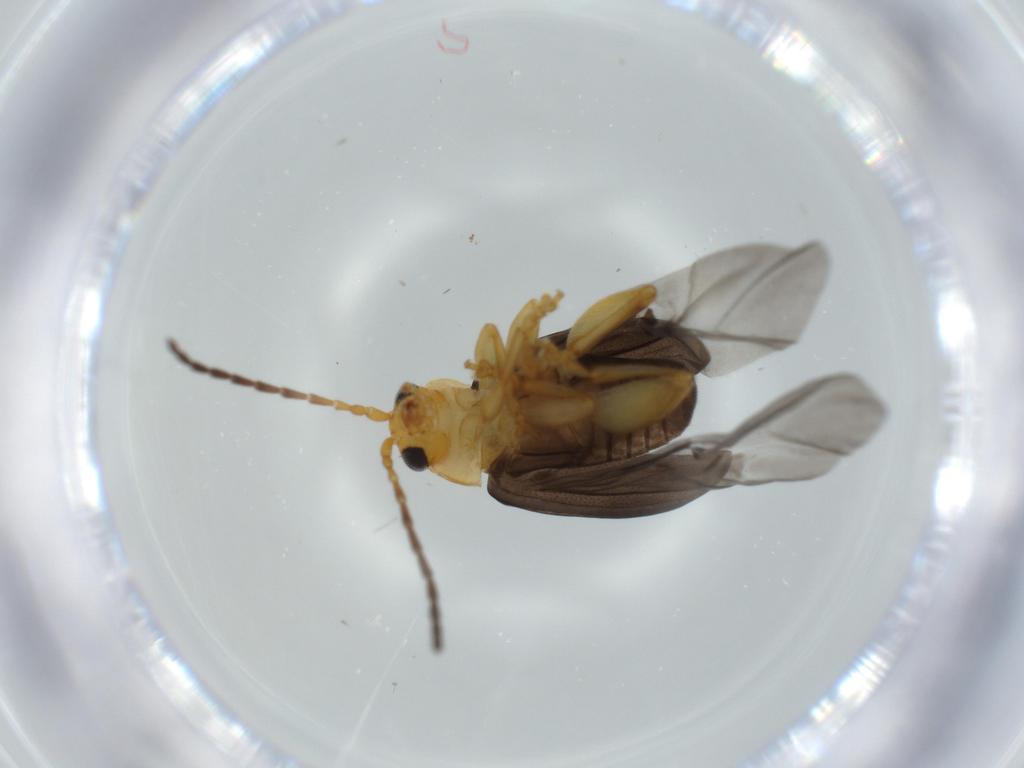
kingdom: Animalia
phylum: Arthropoda
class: Insecta
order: Coleoptera
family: Chrysomelidae
